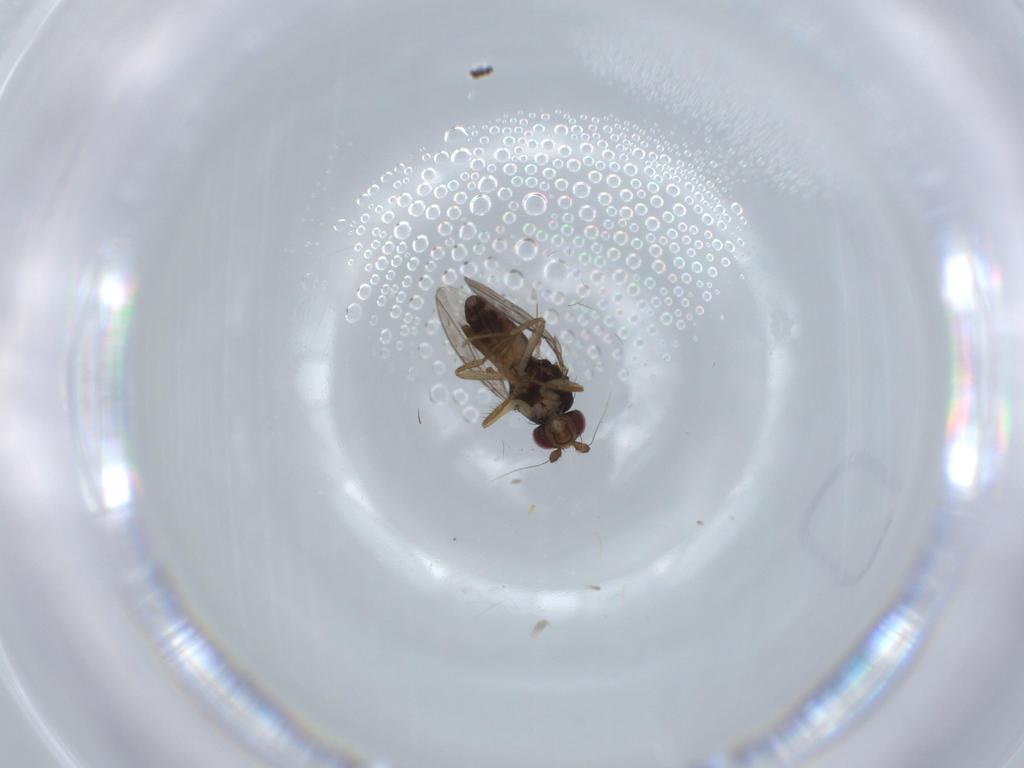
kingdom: Animalia
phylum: Arthropoda
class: Insecta
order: Diptera
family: Sphaeroceridae
